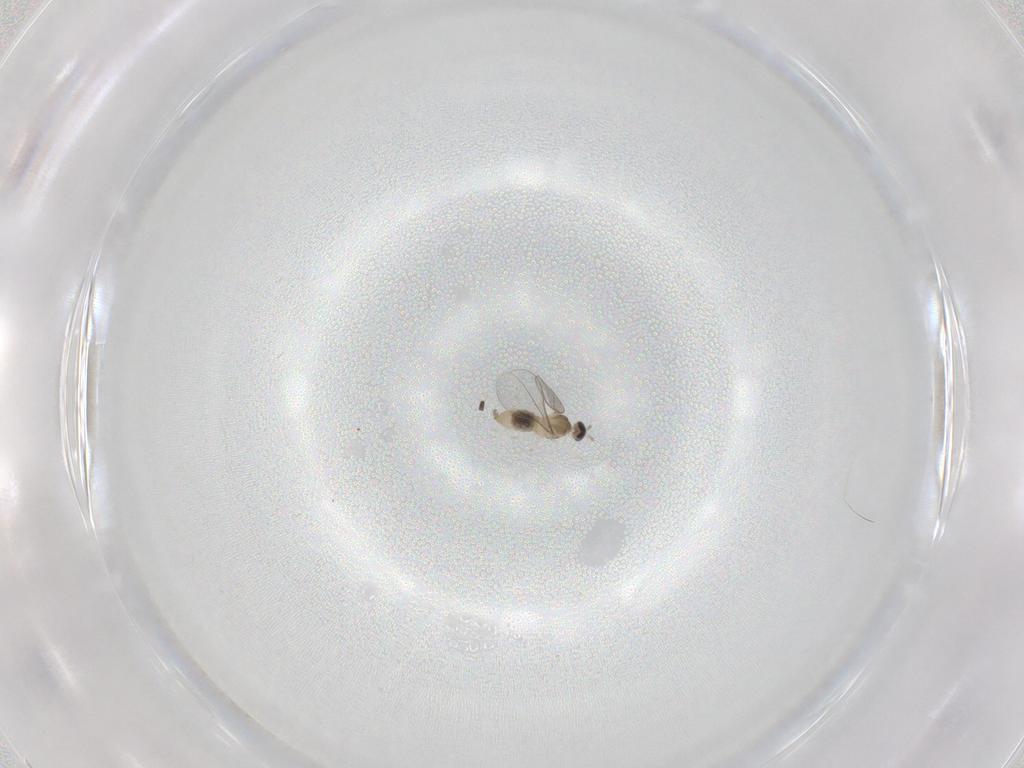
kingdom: Animalia
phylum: Arthropoda
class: Insecta
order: Diptera
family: Cecidomyiidae
